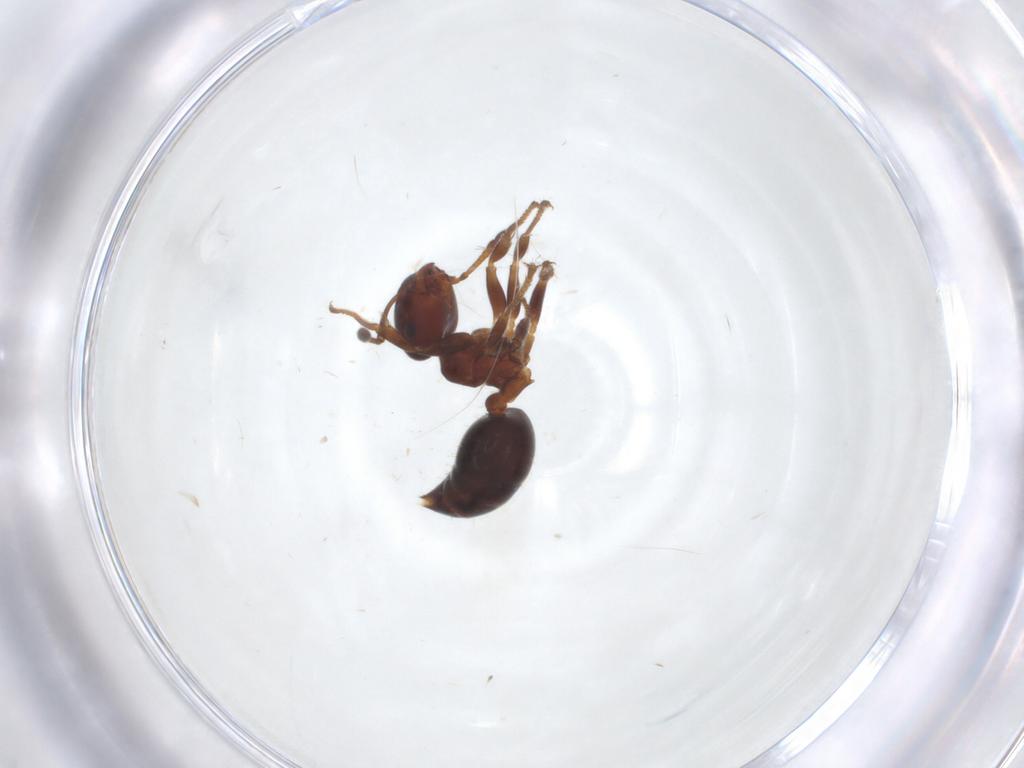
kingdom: Animalia
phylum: Arthropoda
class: Insecta
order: Hymenoptera
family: Formicidae
